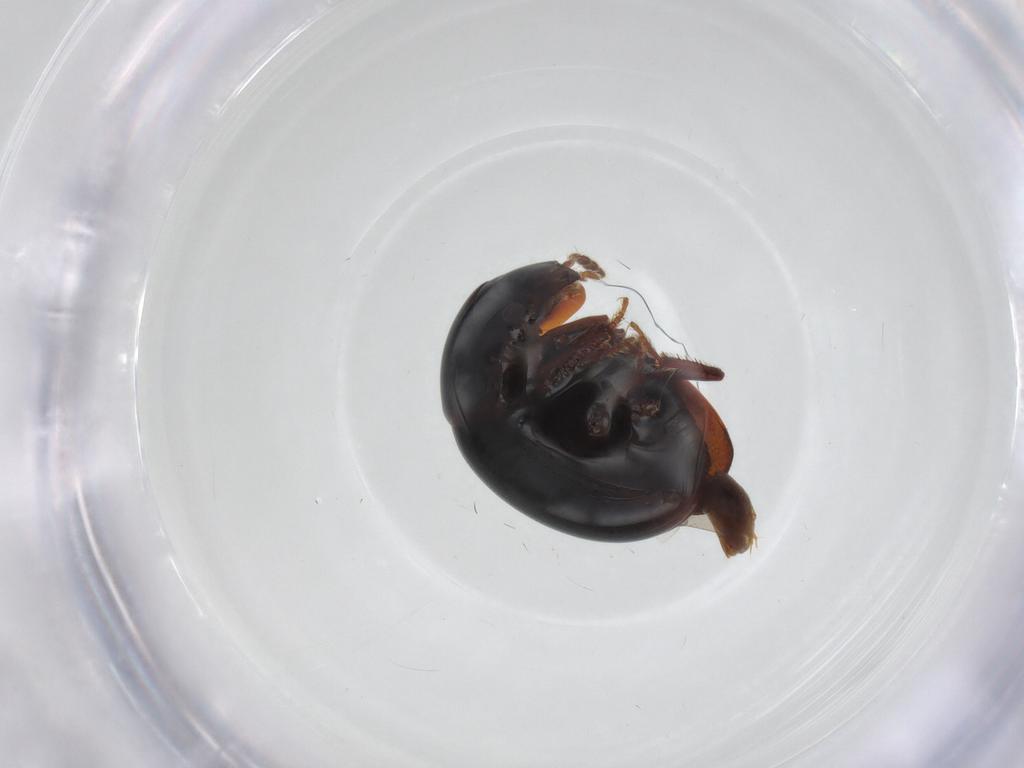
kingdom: Animalia
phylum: Arthropoda
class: Insecta
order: Coleoptera
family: Leiodidae
